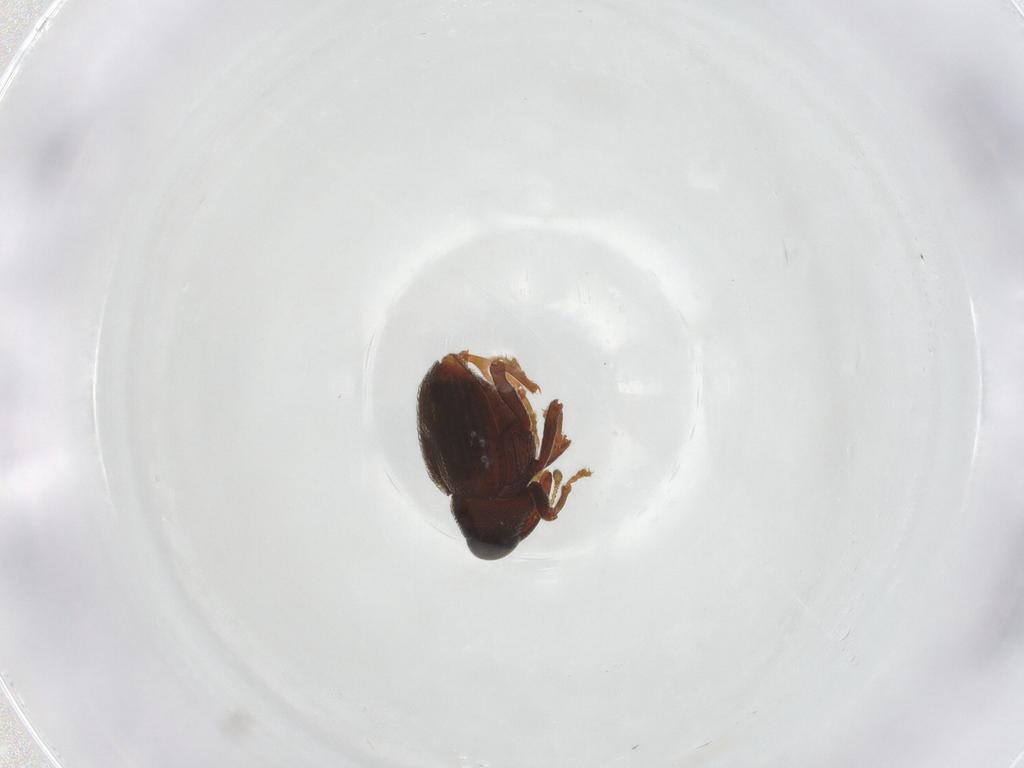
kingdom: Animalia
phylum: Arthropoda
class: Insecta
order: Coleoptera
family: Curculionidae
